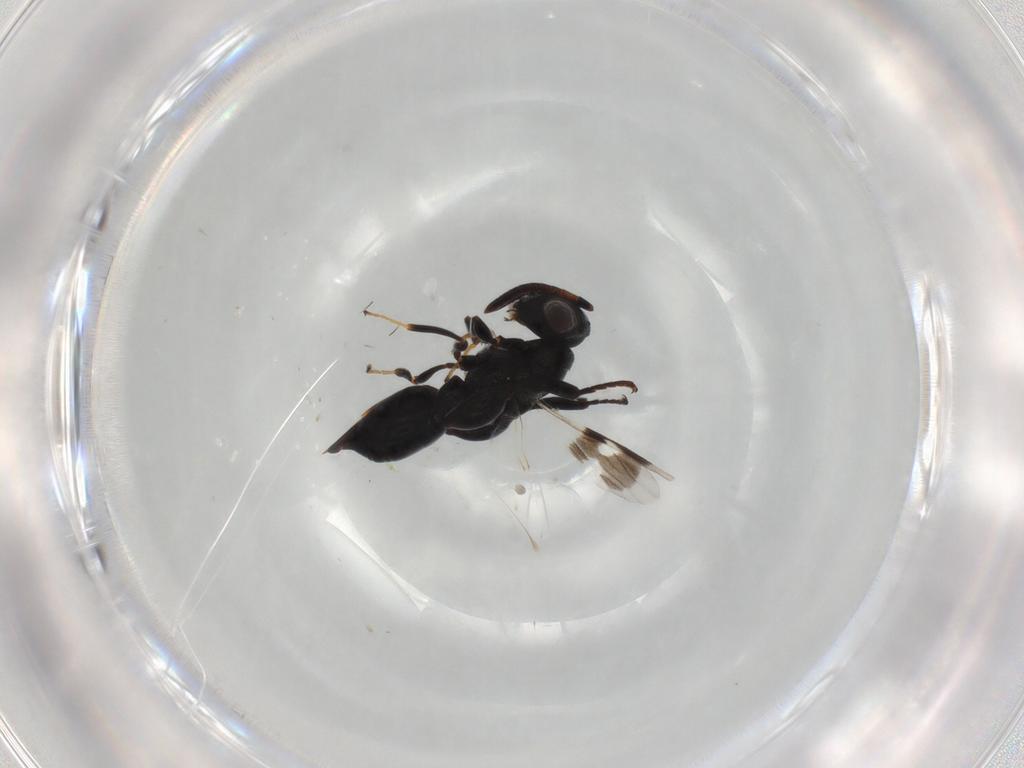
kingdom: Animalia
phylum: Arthropoda
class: Insecta
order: Hymenoptera
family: Chalcididae
